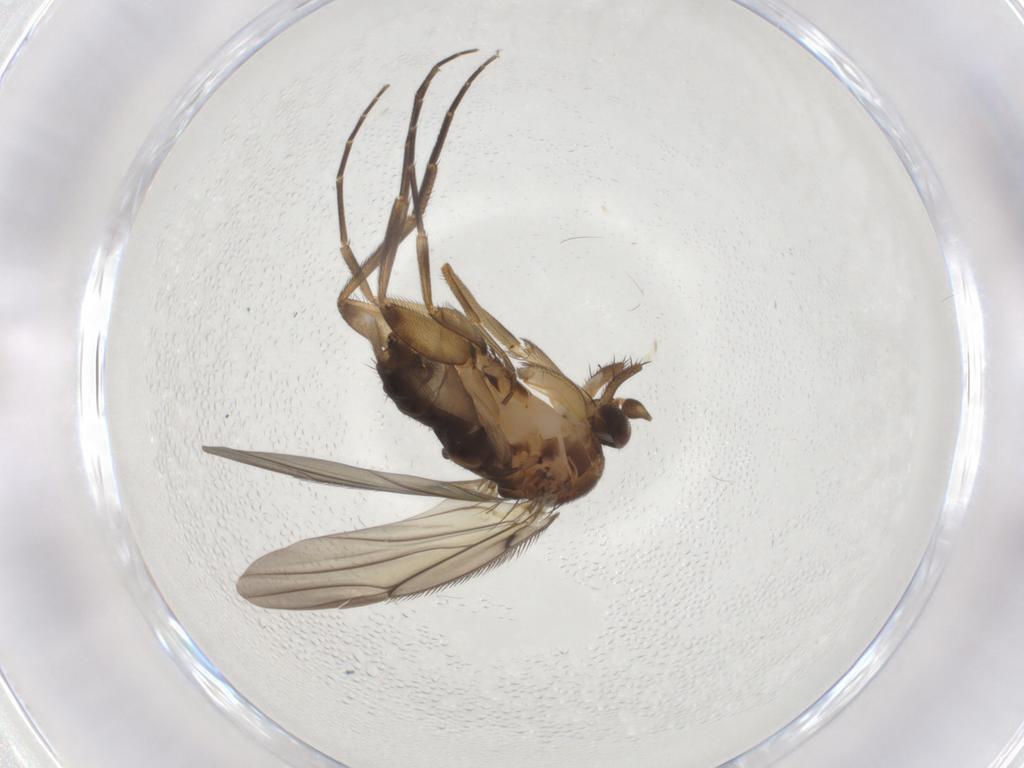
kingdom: Animalia
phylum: Arthropoda
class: Insecta
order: Diptera
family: Phoridae
